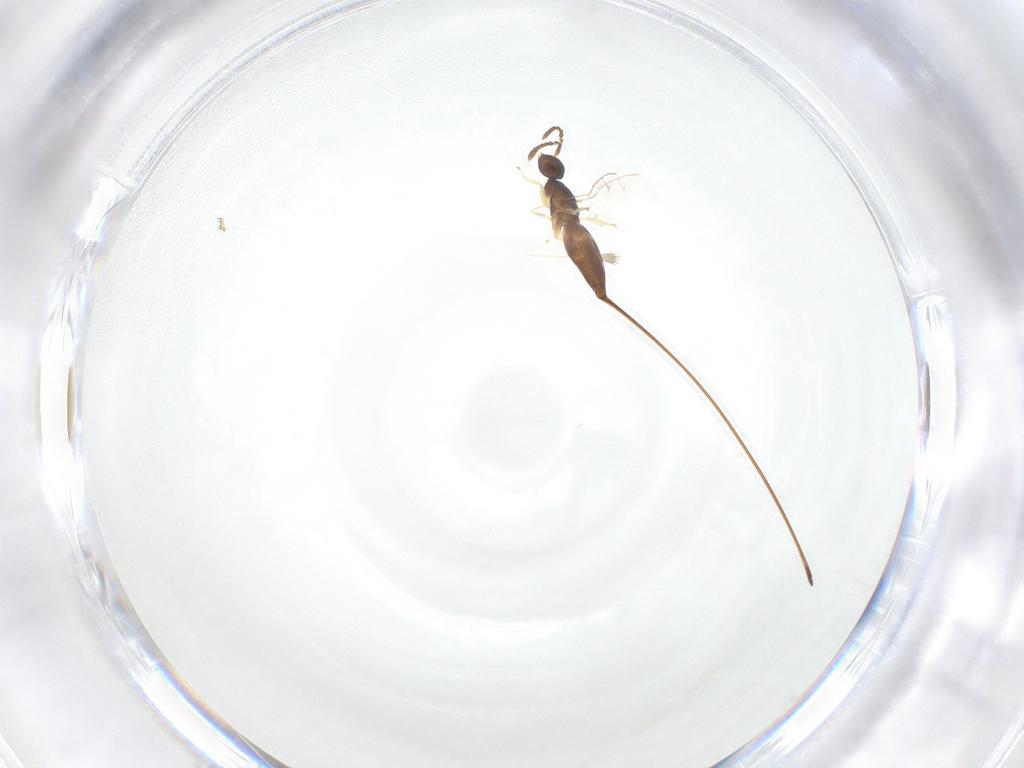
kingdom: Animalia
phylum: Arthropoda
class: Insecta
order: Diptera
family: Phoridae
